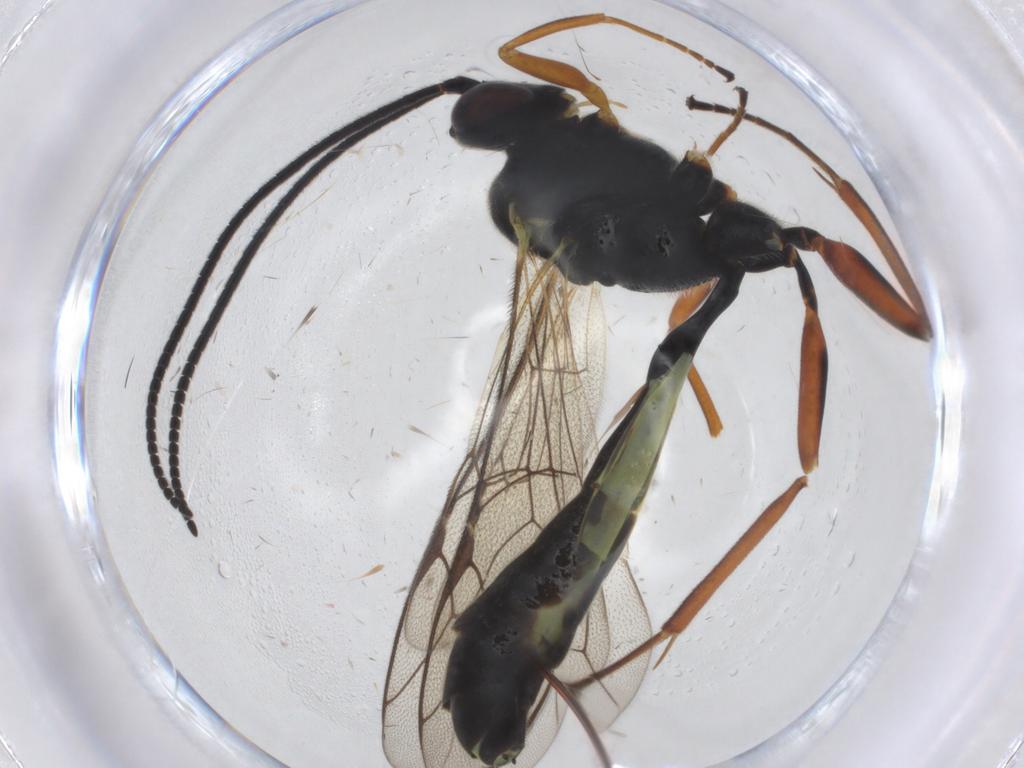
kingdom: Animalia
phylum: Arthropoda
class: Insecta
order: Hymenoptera
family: Ichneumonidae
